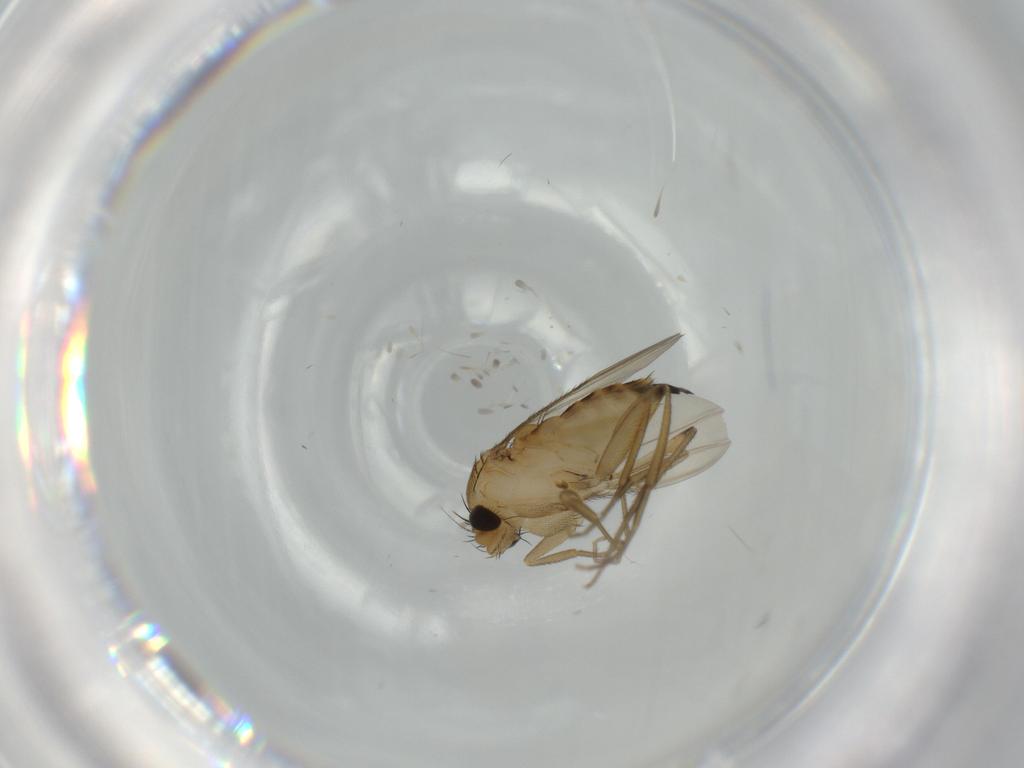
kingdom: Animalia
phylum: Arthropoda
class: Insecta
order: Diptera
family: Phoridae
